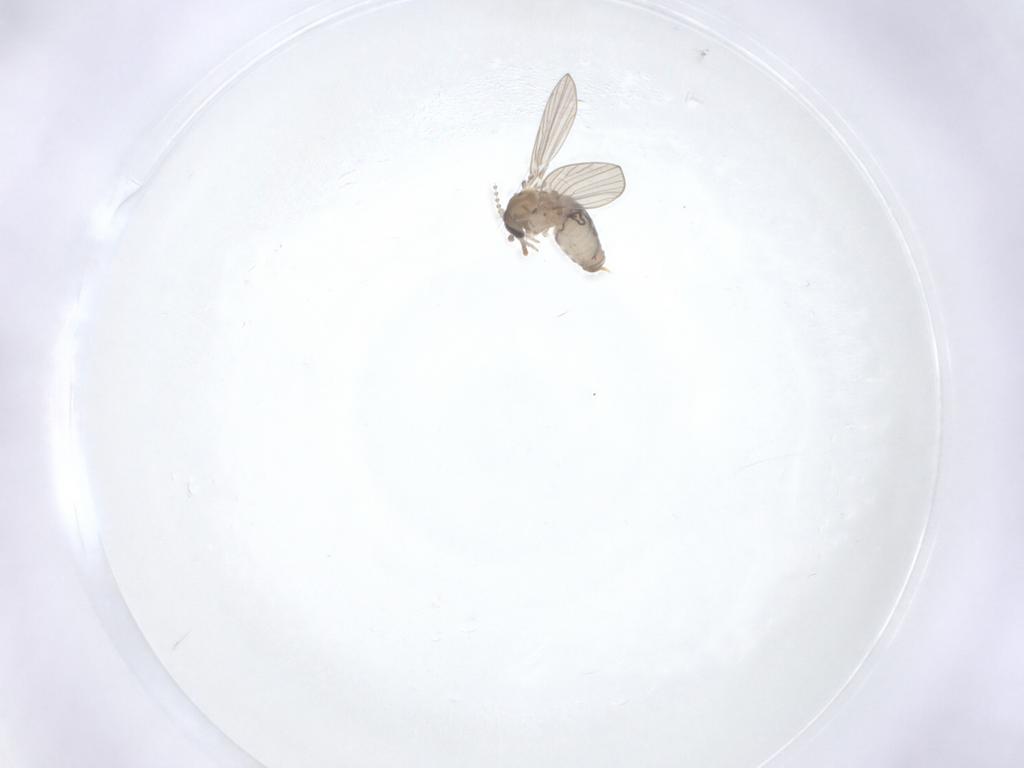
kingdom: Animalia
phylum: Arthropoda
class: Insecta
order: Diptera
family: Psychodidae
